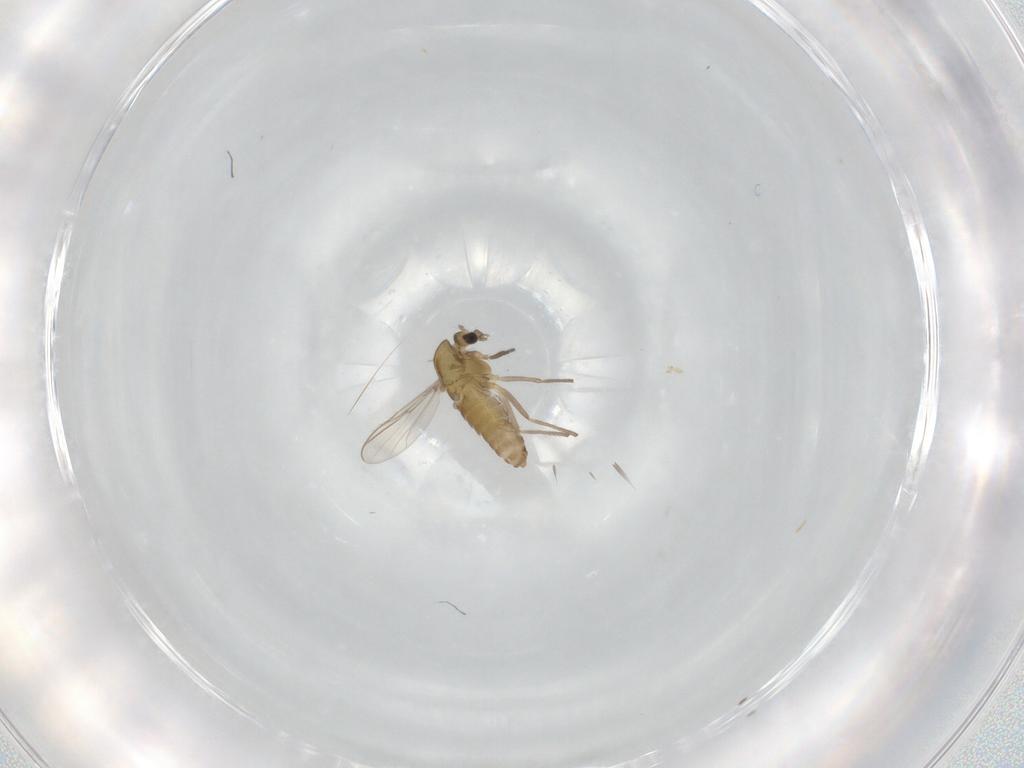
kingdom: Animalia
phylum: Arthropoda
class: Insecta
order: Diptera
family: Chironomidae
